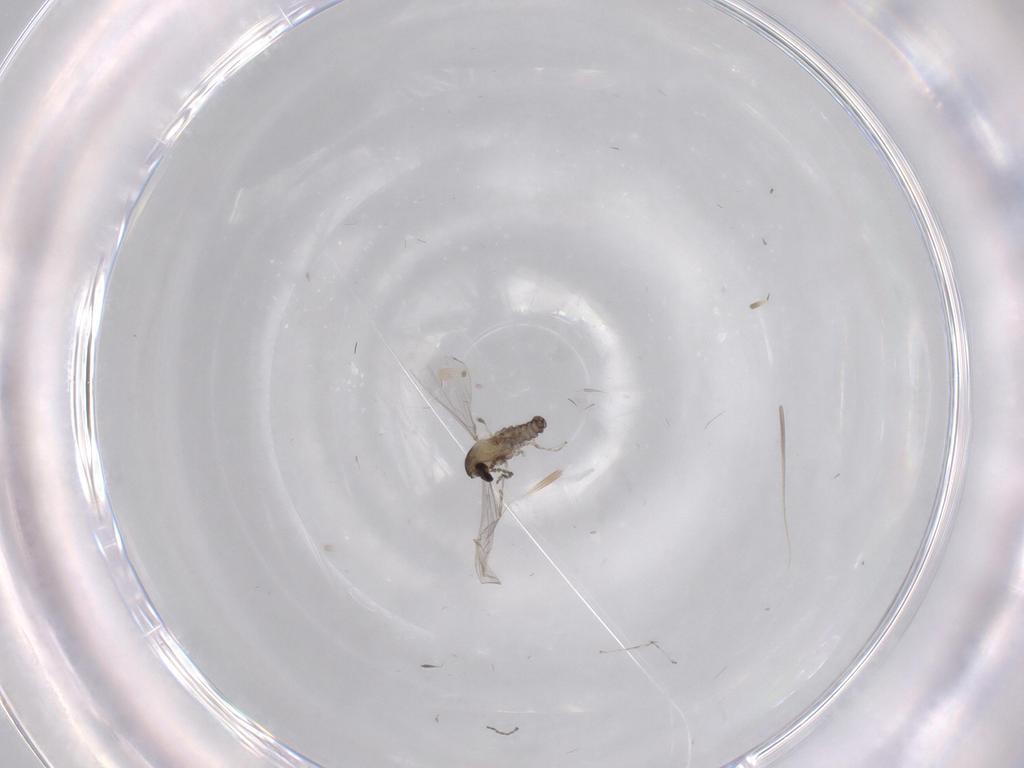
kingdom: Animalia
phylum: Arthropoda
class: Insecta
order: Diptera
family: Cecidomyiidae
